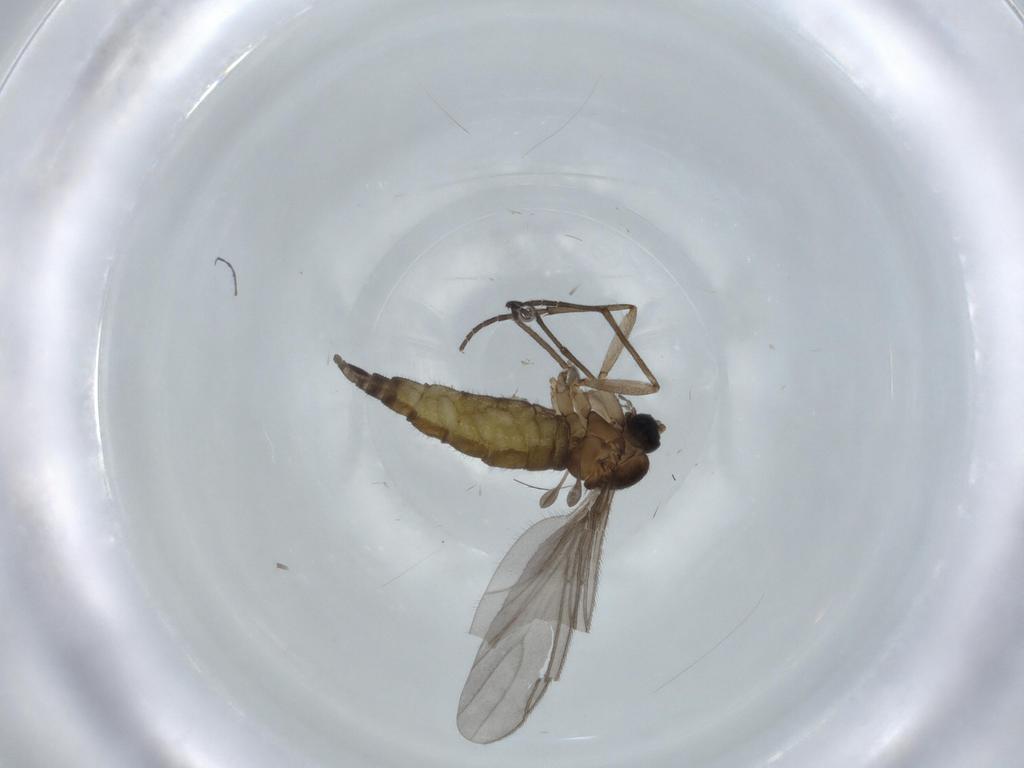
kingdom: Animalia
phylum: Arthropoda
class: Insecta
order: Diptera
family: Sciaridae
